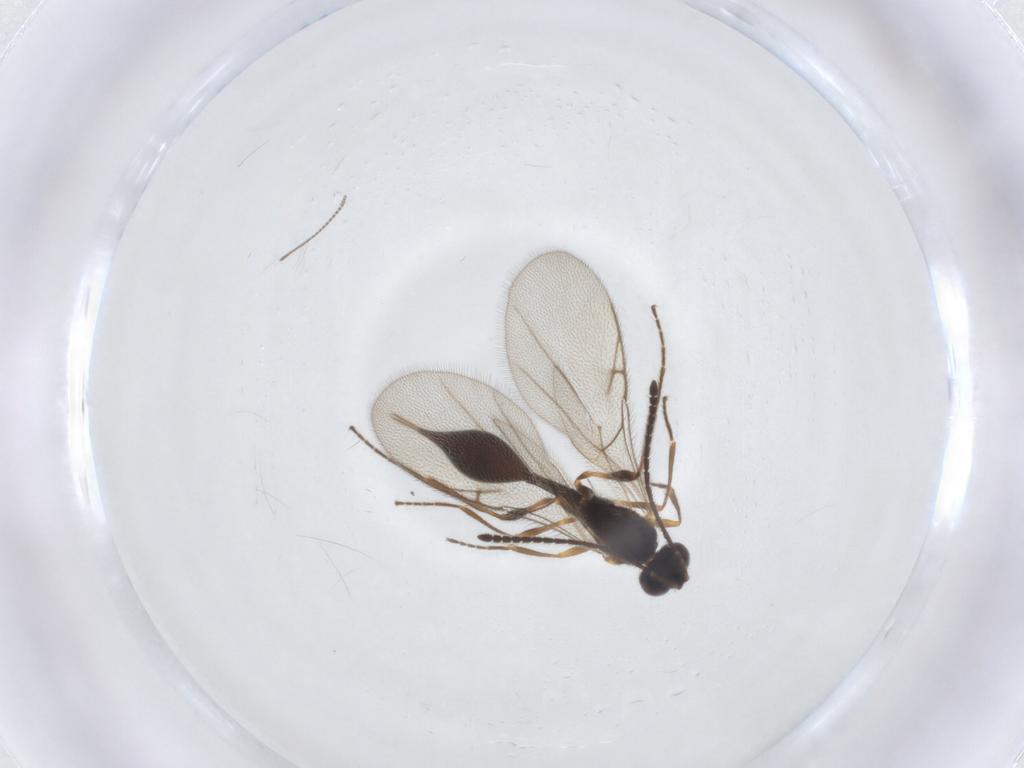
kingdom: Animalia
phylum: Arthropoda
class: Insecta
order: Hymenoptera
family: Diapriidae
